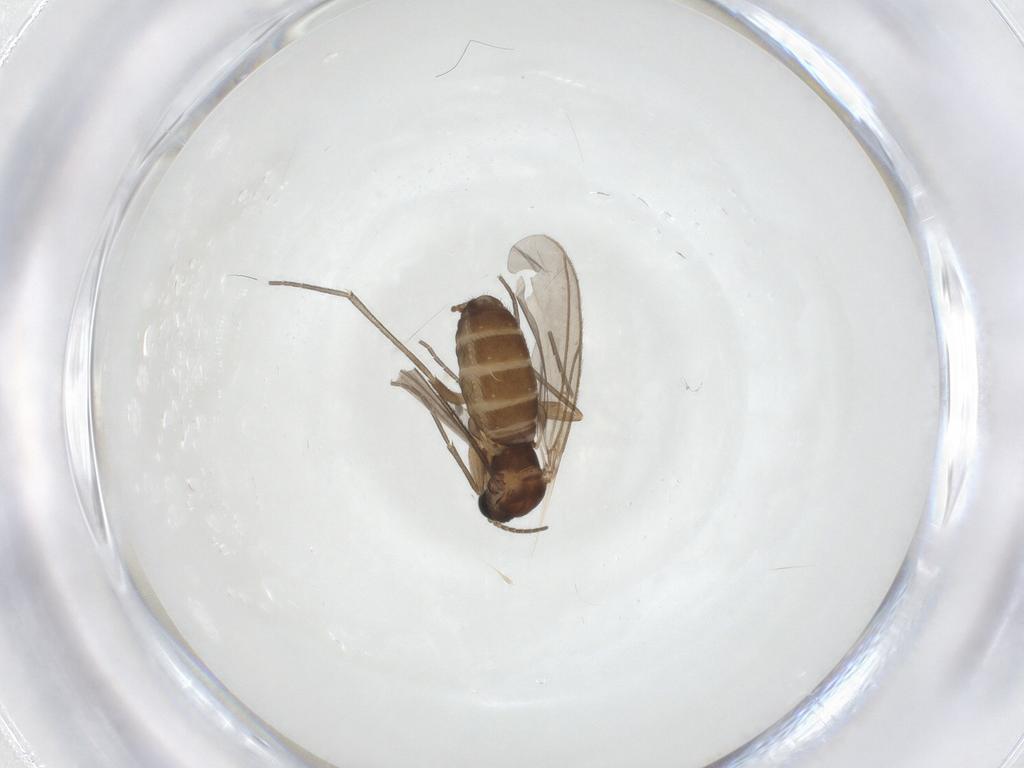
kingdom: Animalia
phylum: Arthropoda
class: Insecta
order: Diptera
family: Sciaridae
